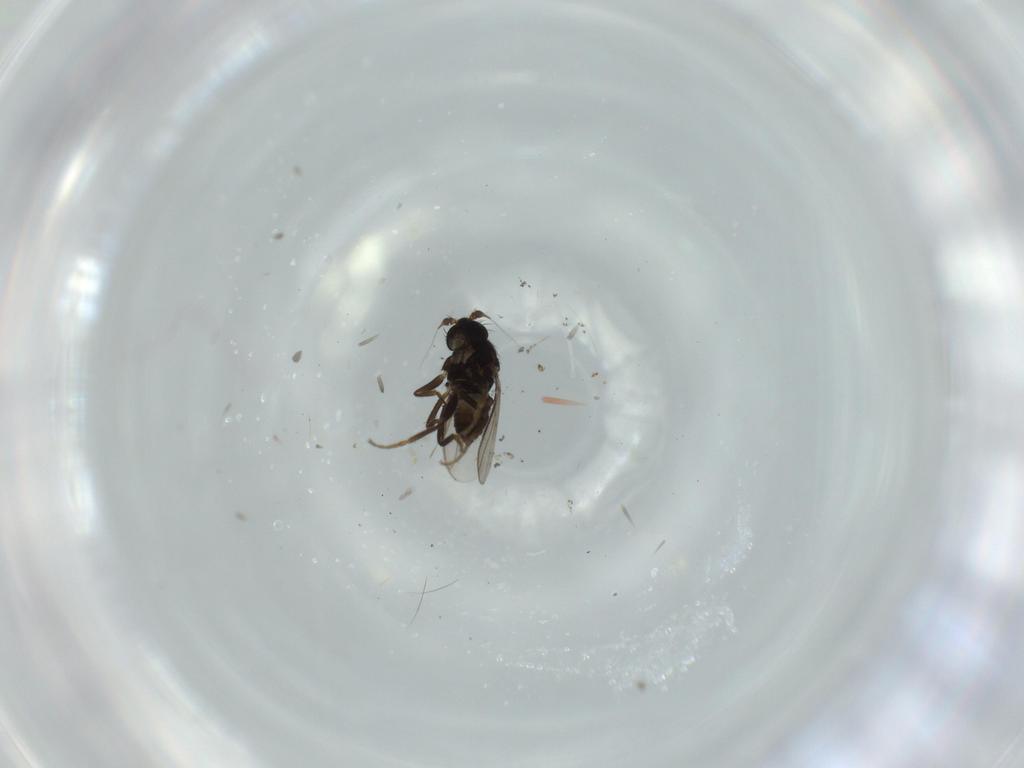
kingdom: Animalia
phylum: Arthropoda
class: Insecta
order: Diptera
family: Sphaeroceridae
